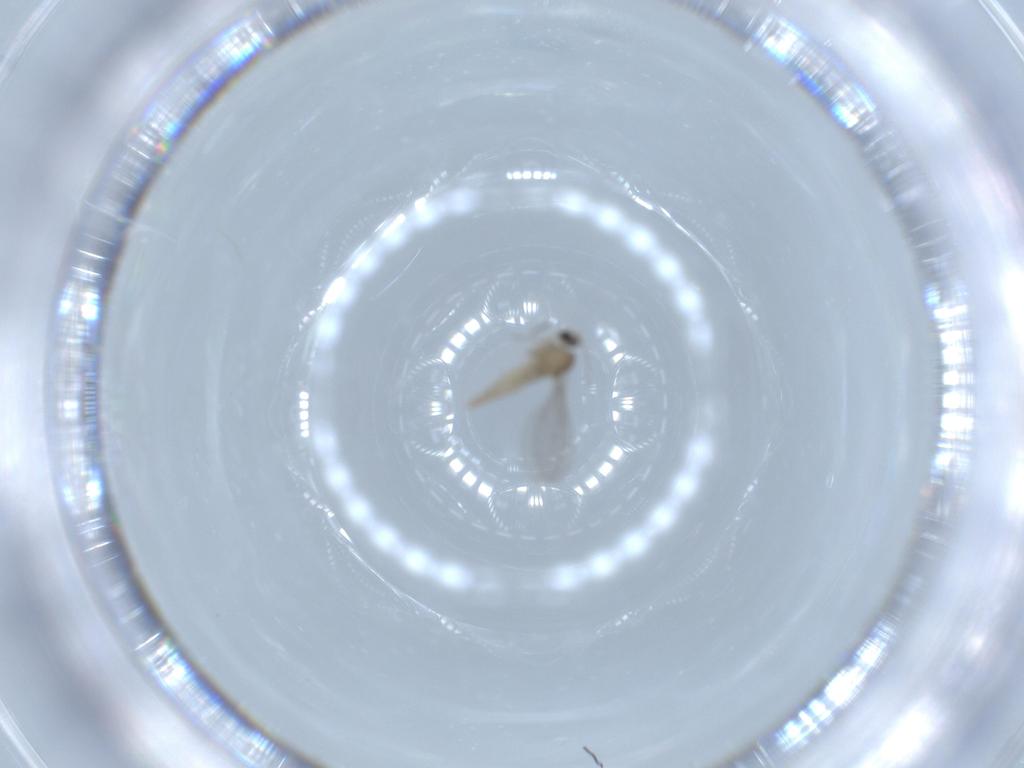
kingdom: Animalia
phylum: Arthropoda
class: Insecta
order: Diptera
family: Cecidomyiidae
